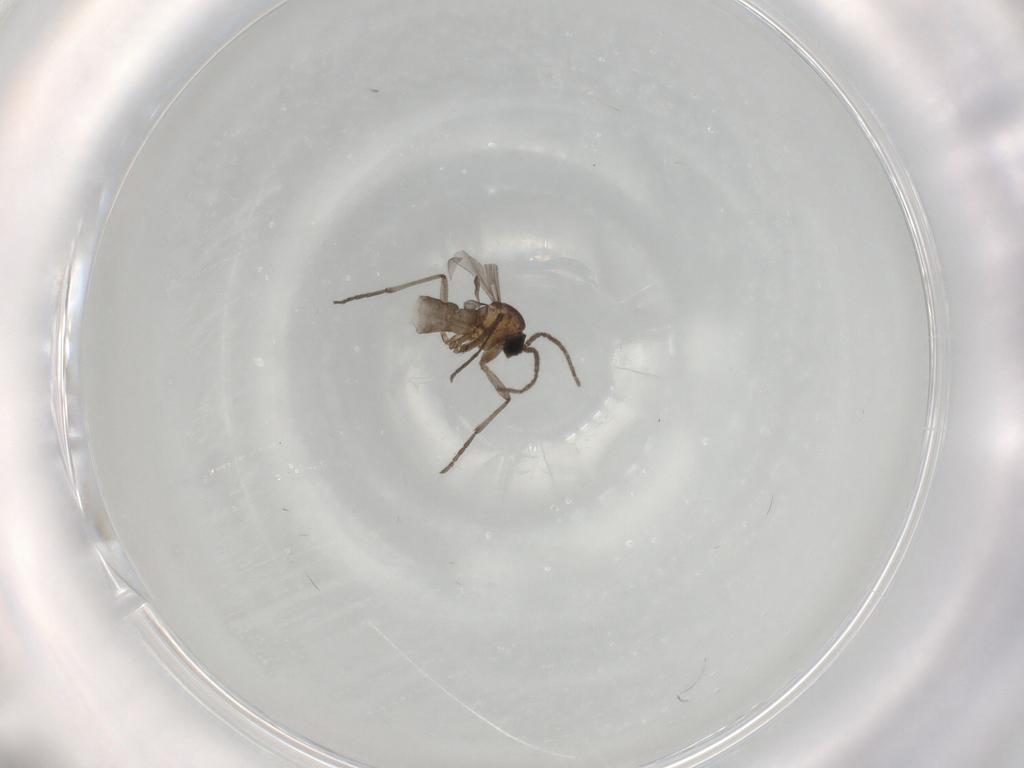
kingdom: Animalia
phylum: Arthropoda
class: Insecta
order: Diptera
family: Sciaridae
